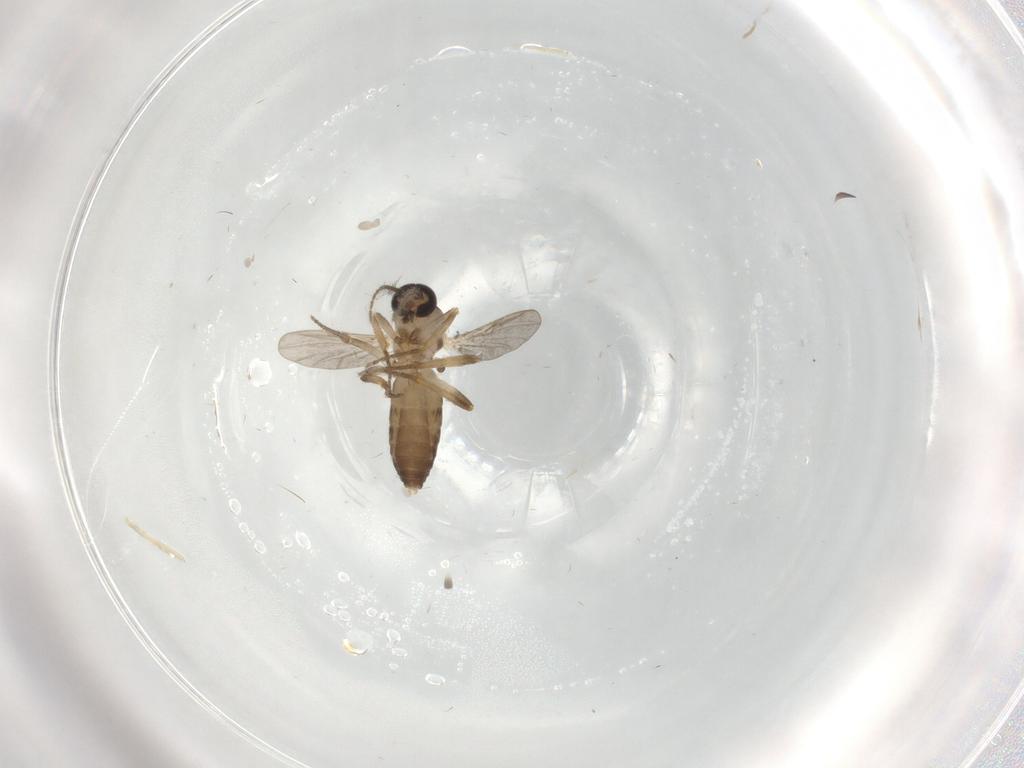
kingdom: Animalia
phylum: Arthropoda
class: Insecta
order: Diptera
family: Ceratopogonidae
